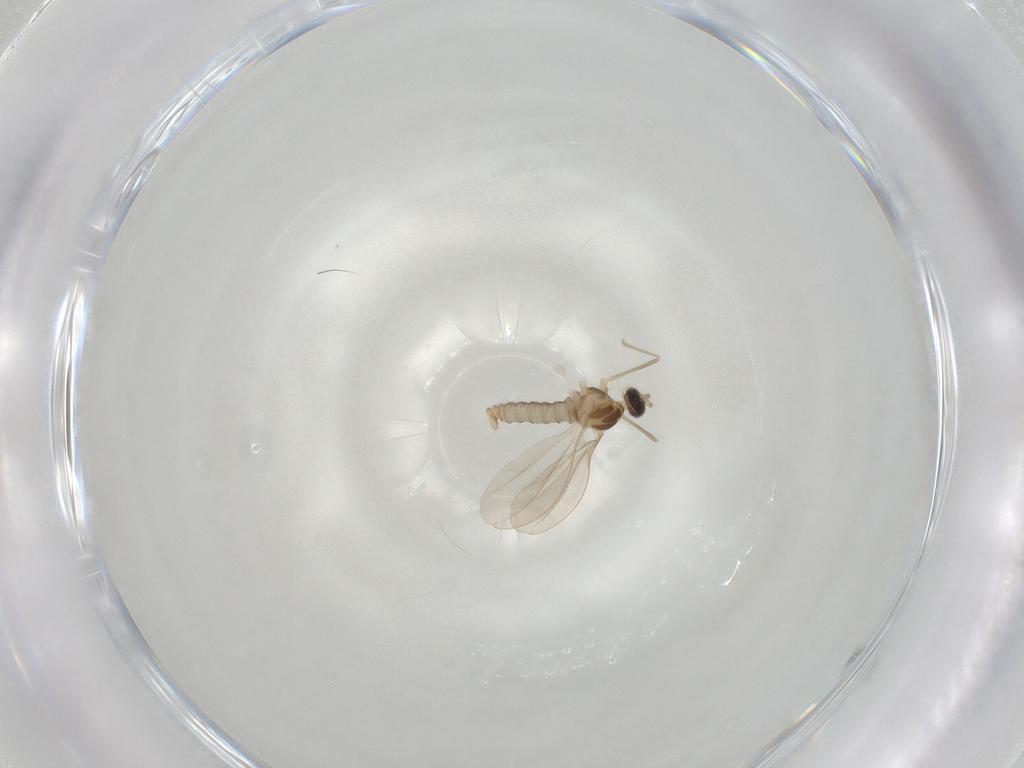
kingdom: Animalia
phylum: Arthropoda
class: Insecta
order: Diptera
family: Cecidomyiidae
